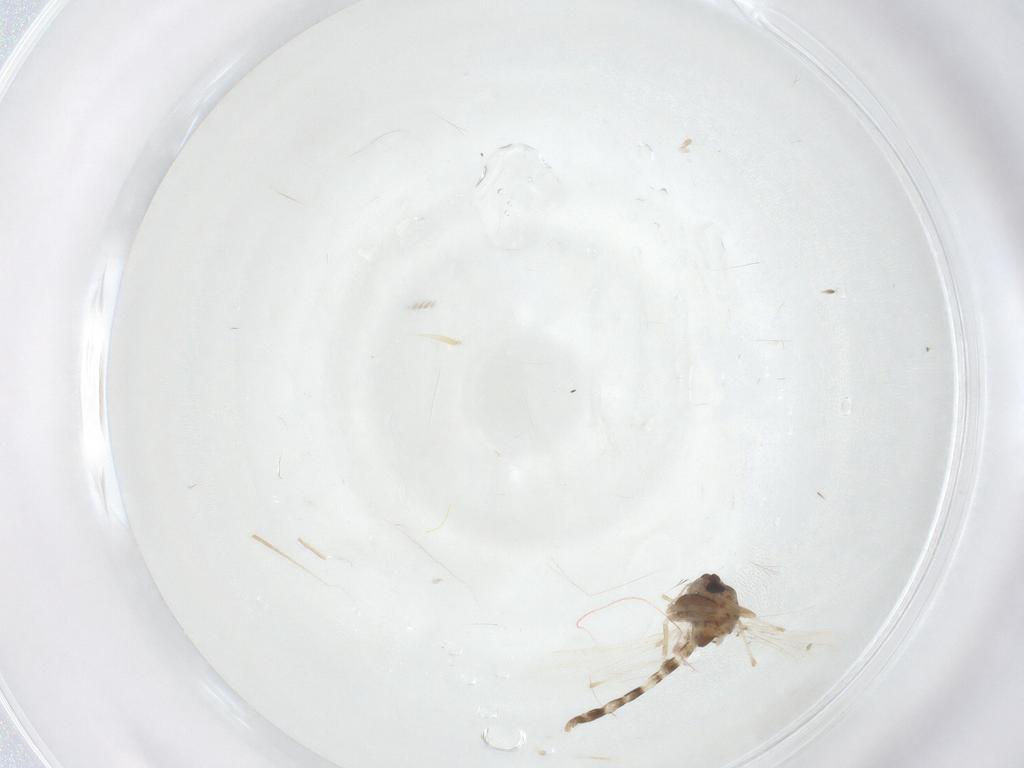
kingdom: Animalia
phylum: Arthropoda
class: Insecta
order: Diptera
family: Chironomidae
